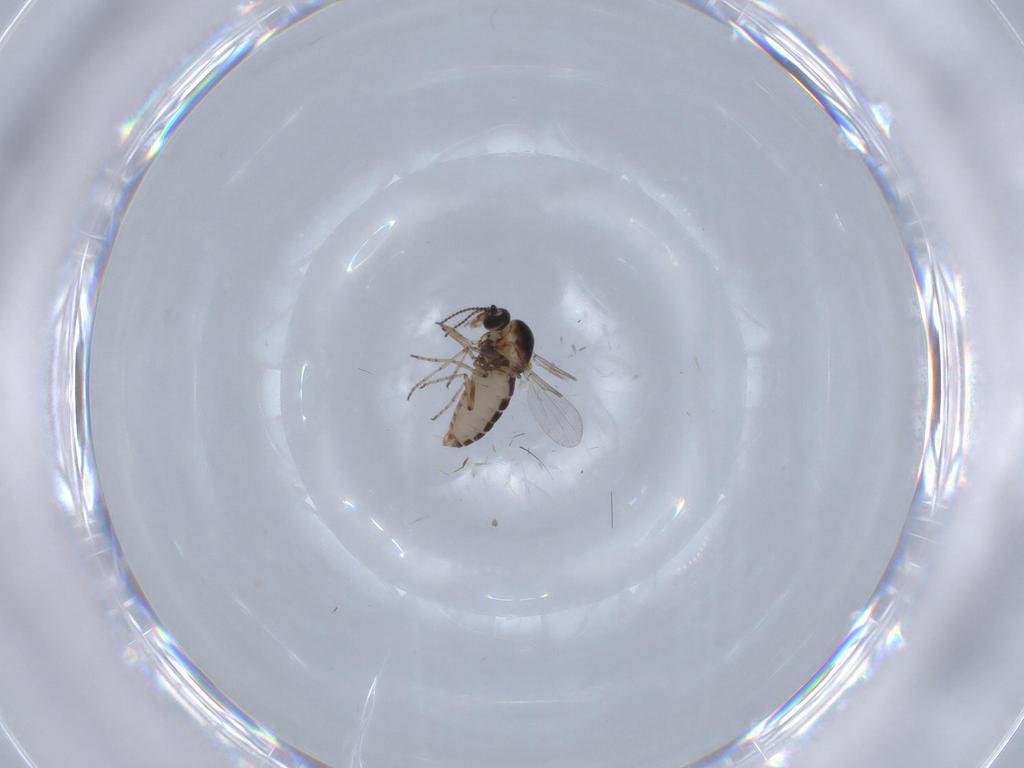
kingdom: Animalia
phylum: Arthropoda
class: Insecta
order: Diptera
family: Ceratopogonidae
